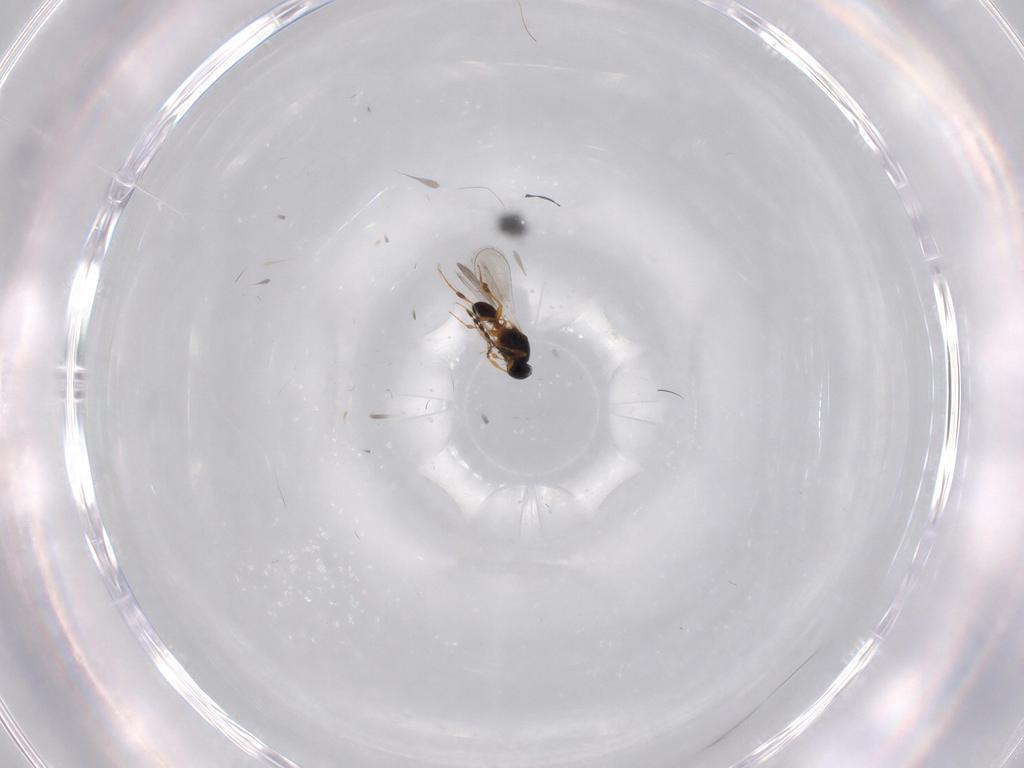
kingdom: Animalia
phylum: Arthropoda
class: Insecta
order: Hymenoptera
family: Platygastridae
